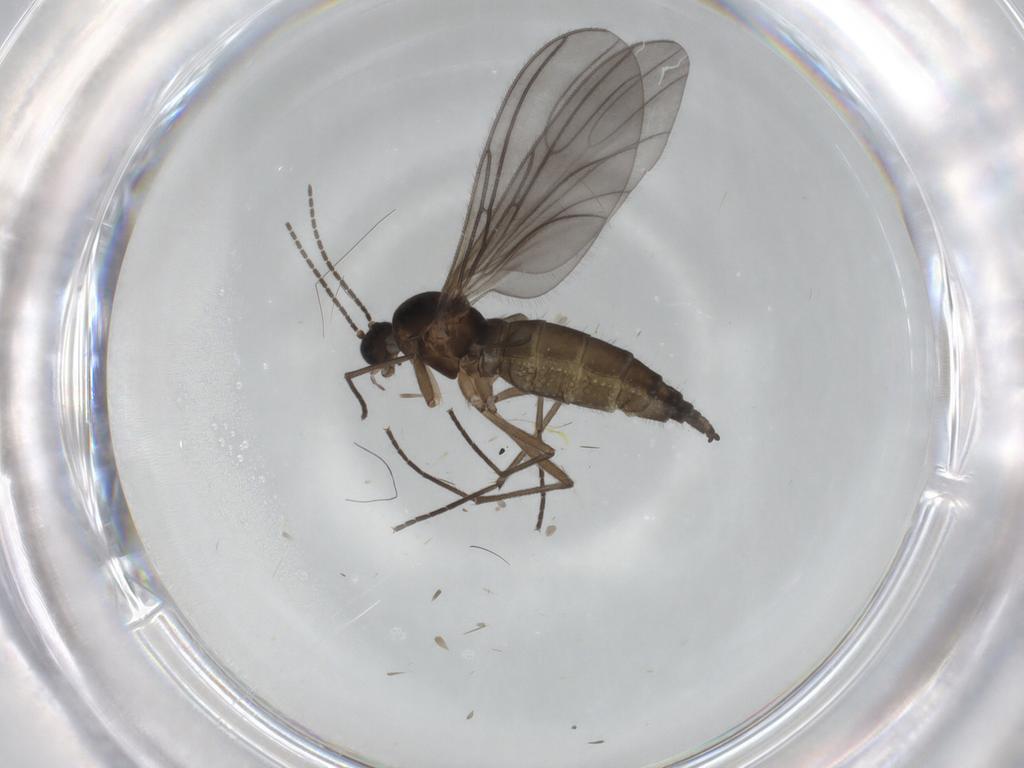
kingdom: Animalia
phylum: Arthropoda
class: Insecta
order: Diptera
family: Sciaridae
